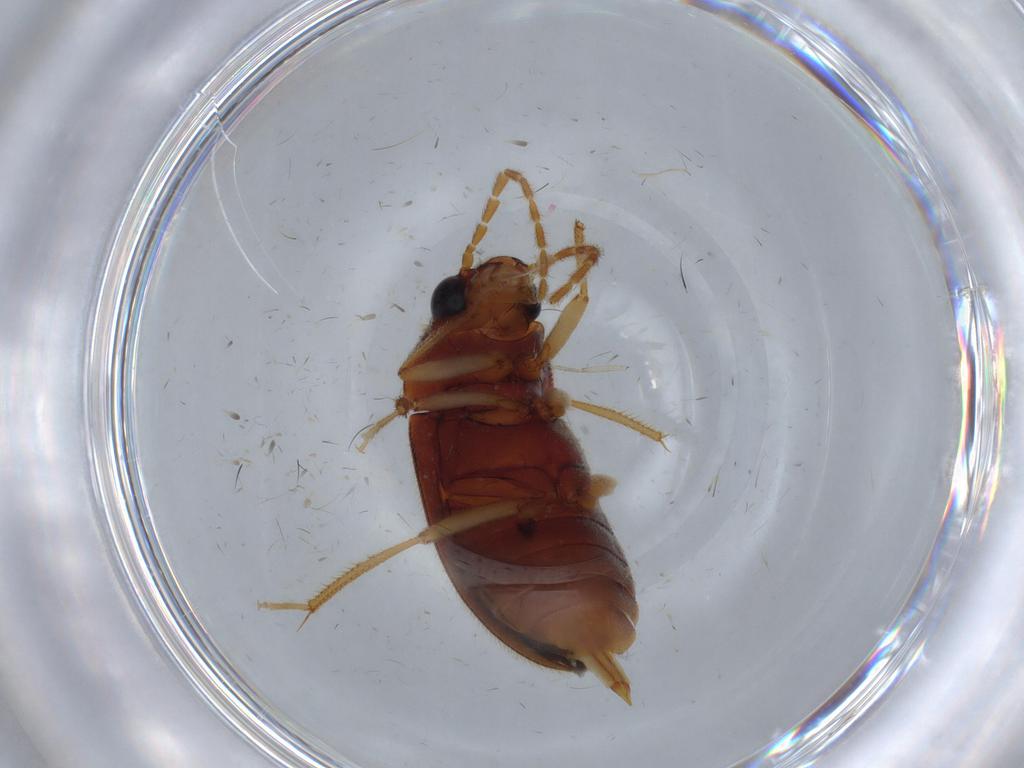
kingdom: Animalia
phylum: Arthropoda
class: Insecta
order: Coleoptera
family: Chrysomelidae
